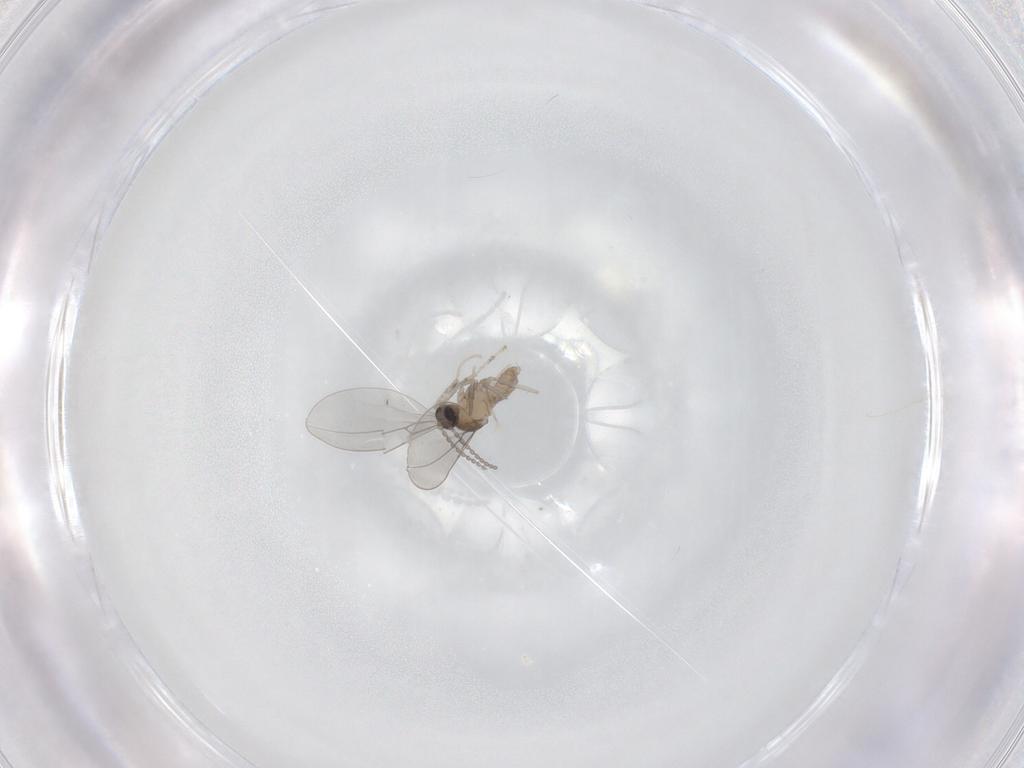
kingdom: Animalia
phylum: Arthropoda
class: Insecta
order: Diptera
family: Cecidomyiidae
